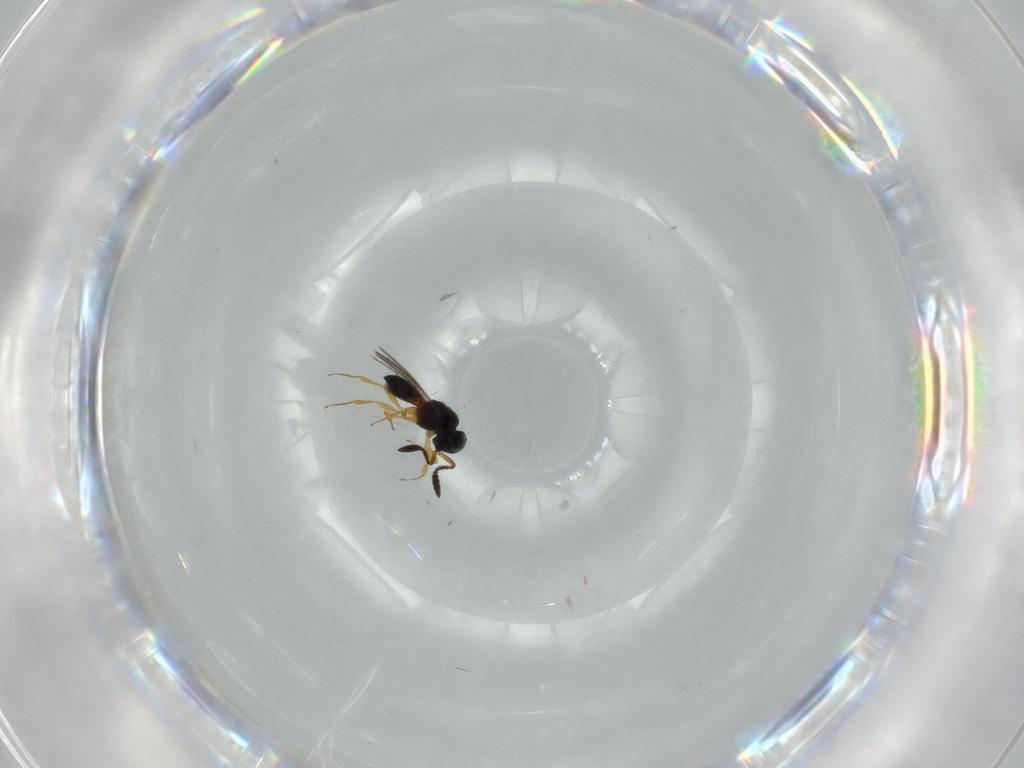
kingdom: Animalia
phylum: Arthropoda
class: Insecta
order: Hymenoptera
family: Scelionidae
